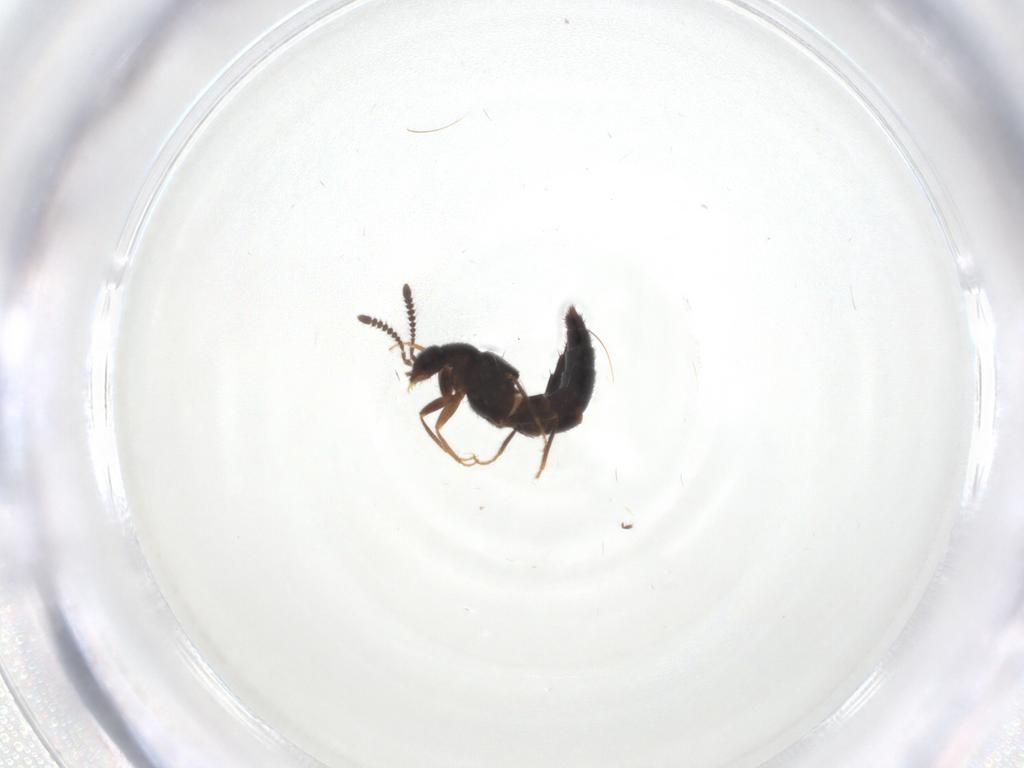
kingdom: Animalia
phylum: Arthropoda
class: Insecta
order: Coleoptera
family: Staphylinidae
